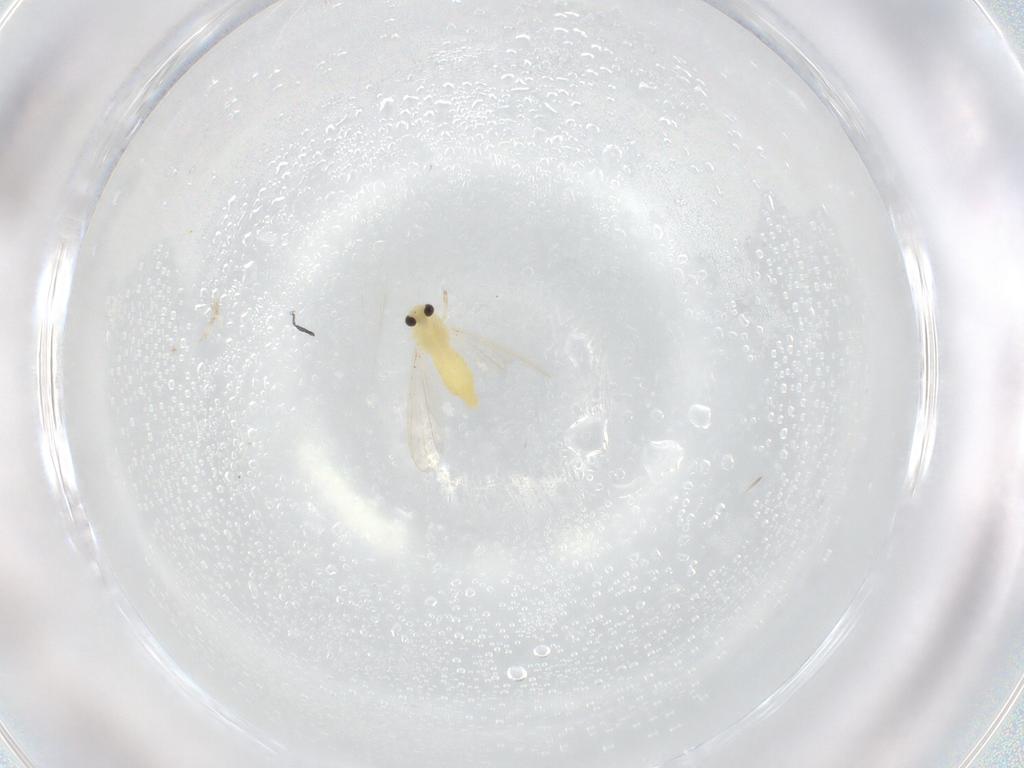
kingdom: Animalia
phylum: Arthropoda
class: Insecta
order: Diptera
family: Chironomidae
